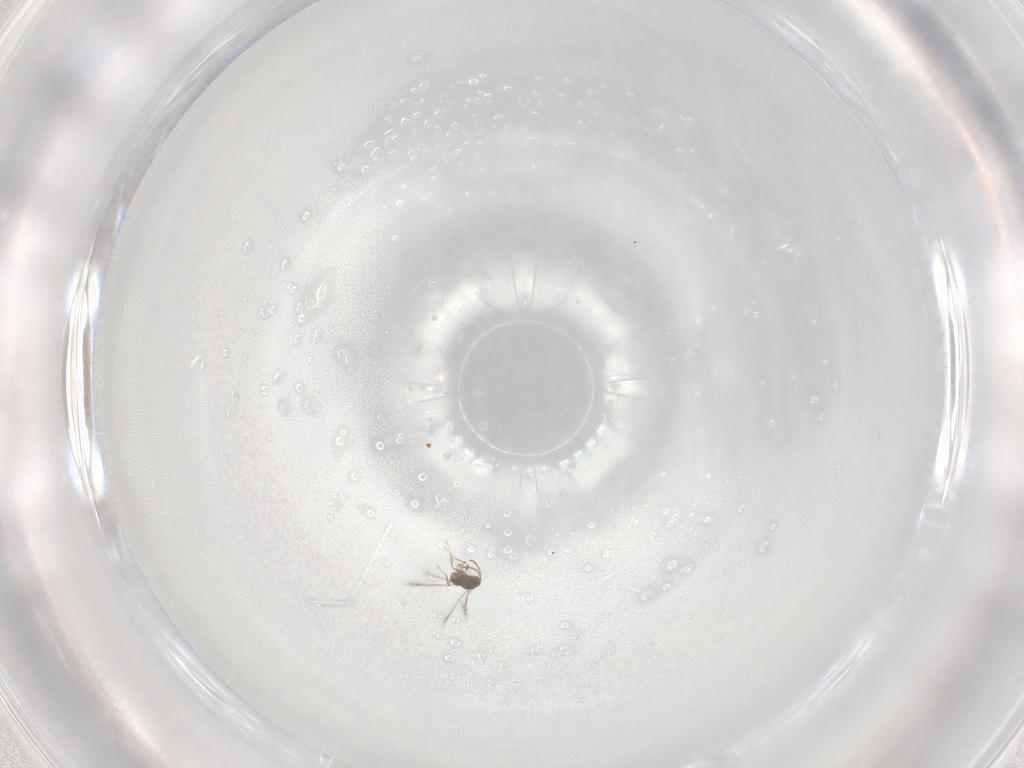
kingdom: Animalia
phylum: Arthropoda
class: Insecta
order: Hymenoptera
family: Mymaridae
